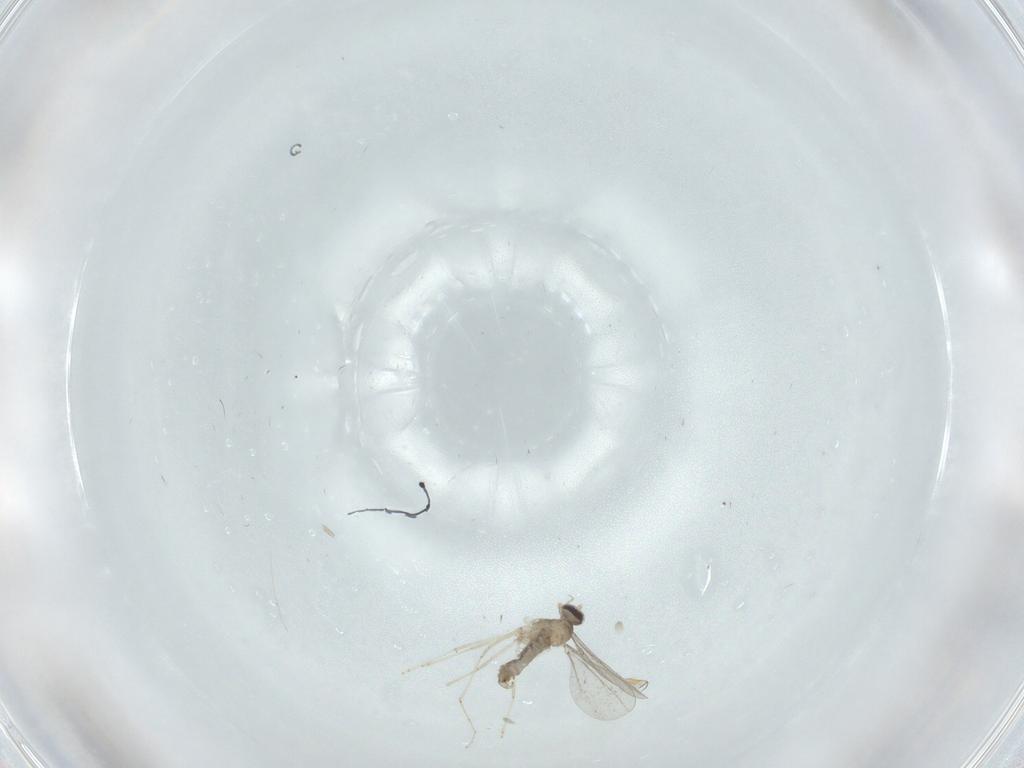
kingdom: Animalia
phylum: Arthropoda
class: Insecta
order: Diptera
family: Cecidomyiidae
